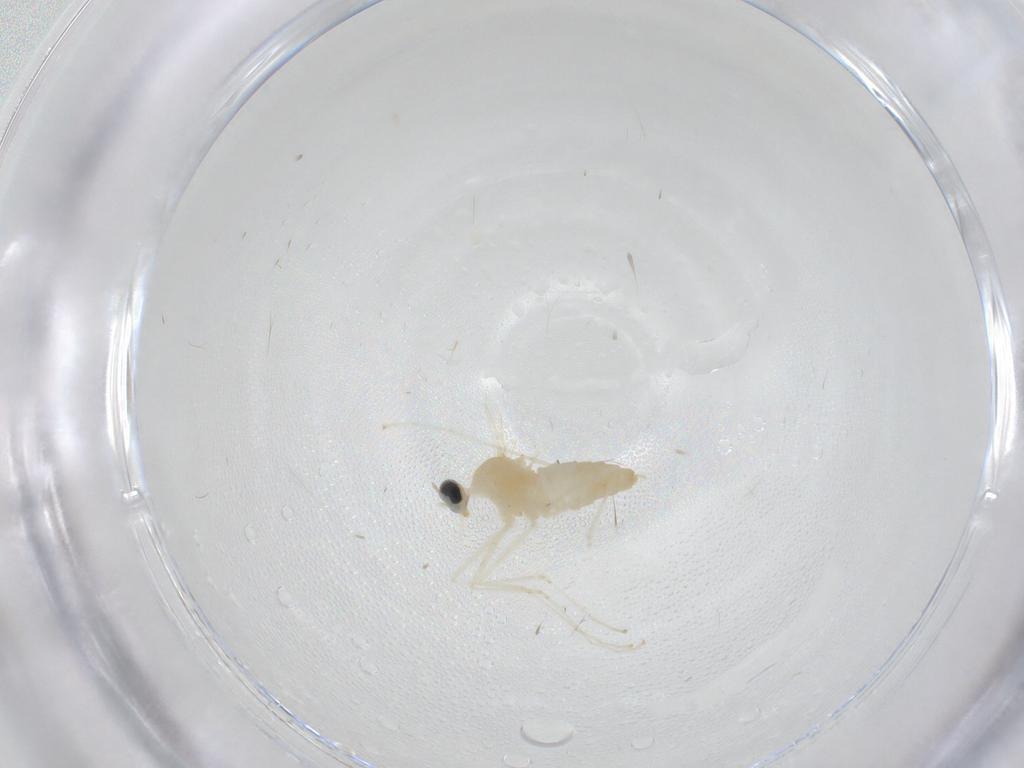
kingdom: Animalia
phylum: Arthropoda
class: Insecta
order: Diptera
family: Cecidomyiidae
